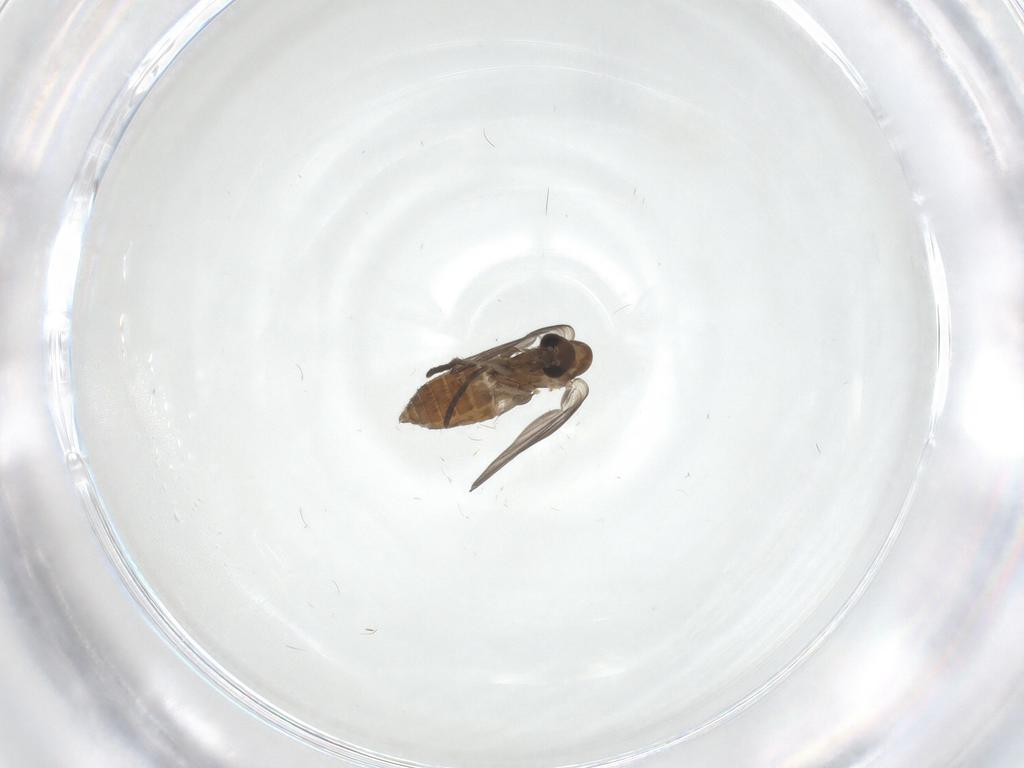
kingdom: Animalia
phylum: Arthropoda
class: Insecta
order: Diptera
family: Psychodidae
